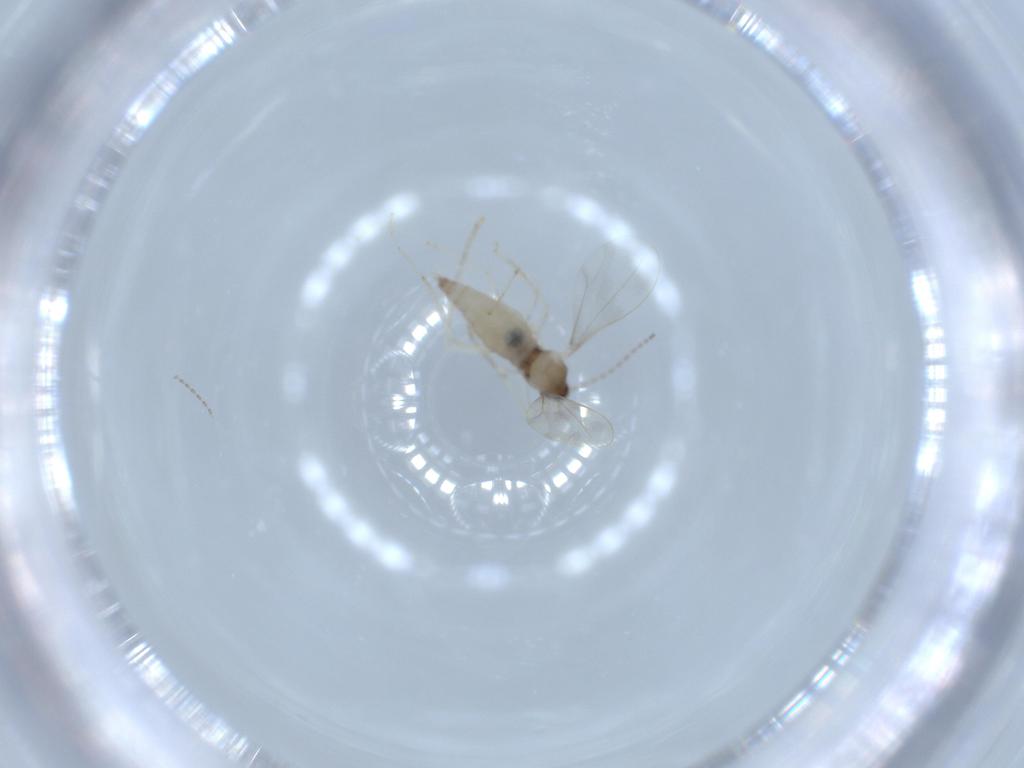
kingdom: Animalia
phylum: Arthropoda
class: Insecta
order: Diptera
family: Cecidomyiidae
